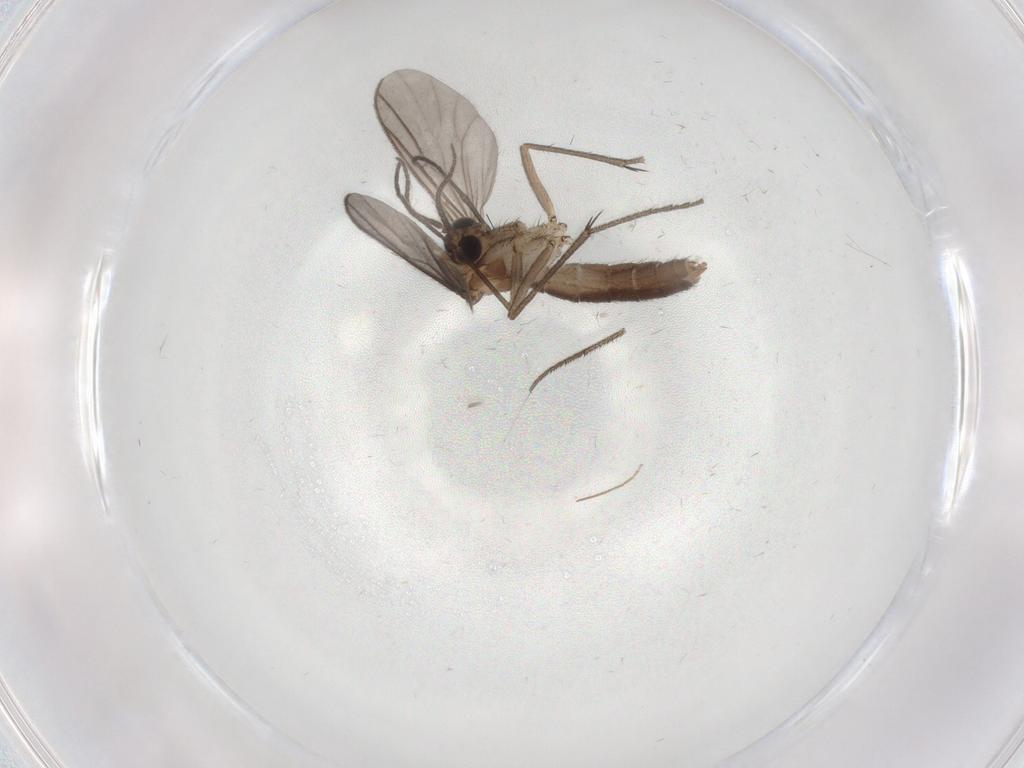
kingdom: Animalia
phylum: Arthropoda
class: Insecta
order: Diptera
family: Mycetophilidae
